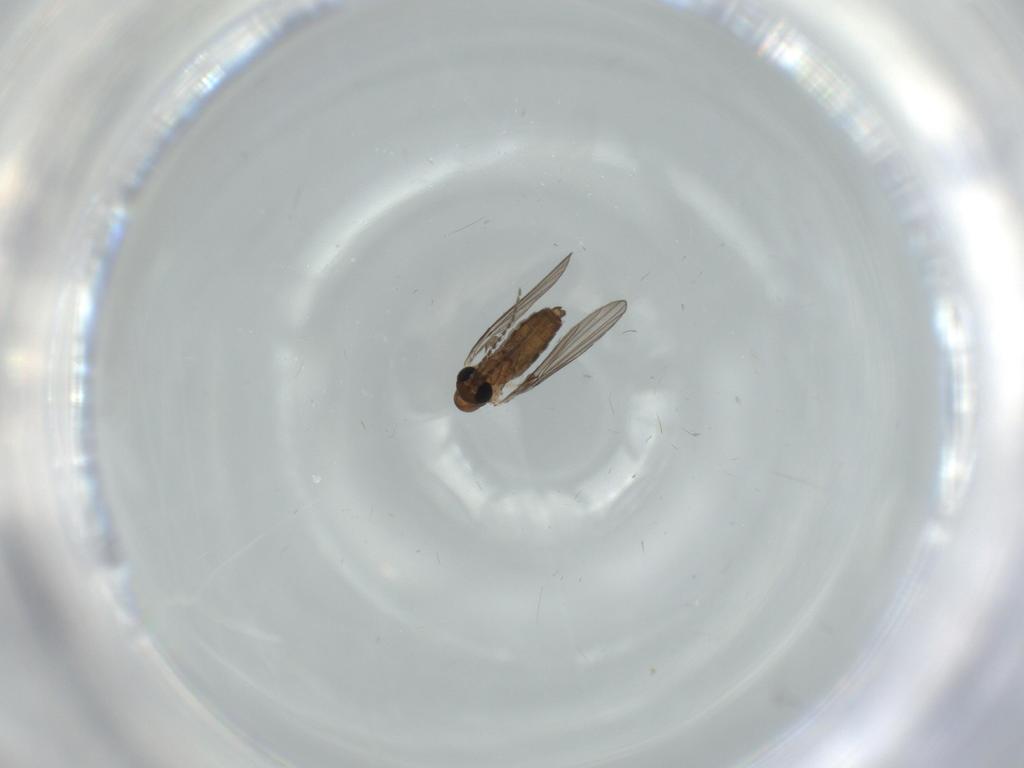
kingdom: Animalia
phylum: Arthropoda
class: Insecta
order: Diptera
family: Psychodidae
